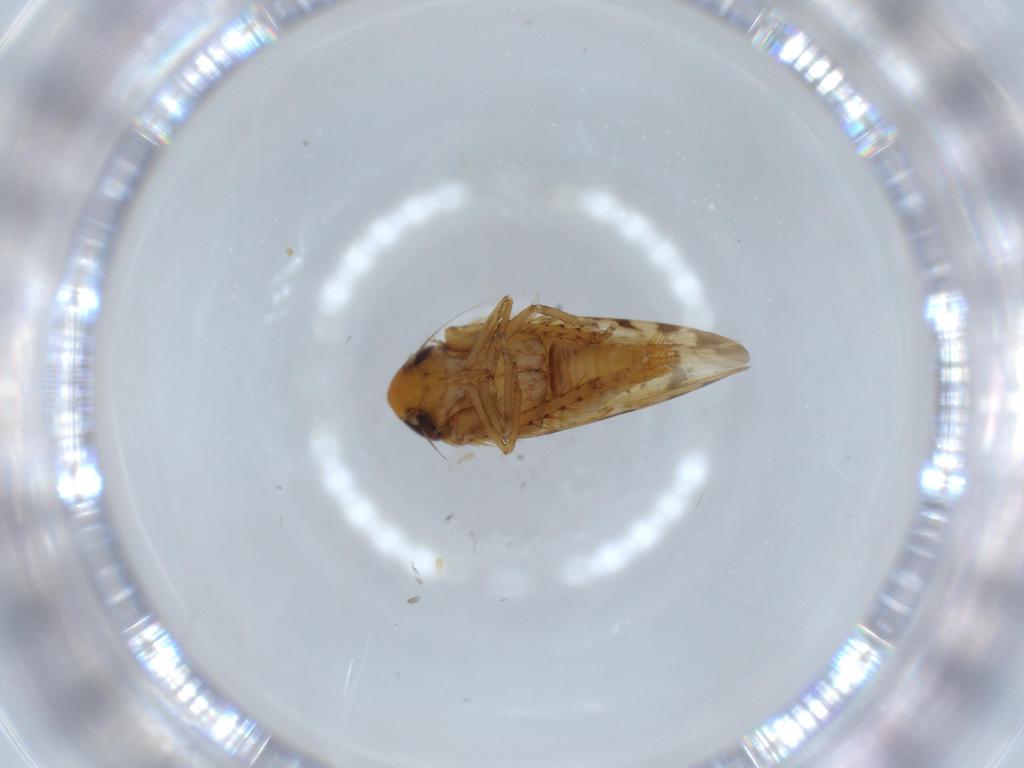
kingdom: Animalia
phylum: Arthropoda
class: Insecta
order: Hemiptera
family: Cicadellidae
